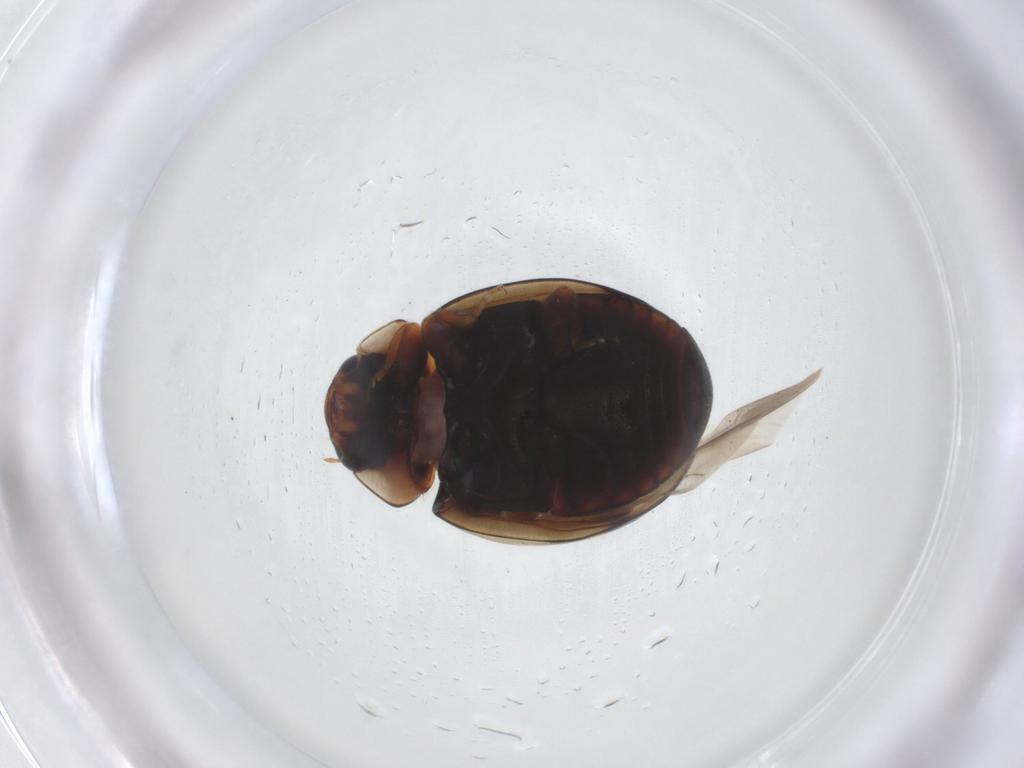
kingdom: Animalia
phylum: Arthropoda
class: Insecta
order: Coleoptera
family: Coccinellidae
